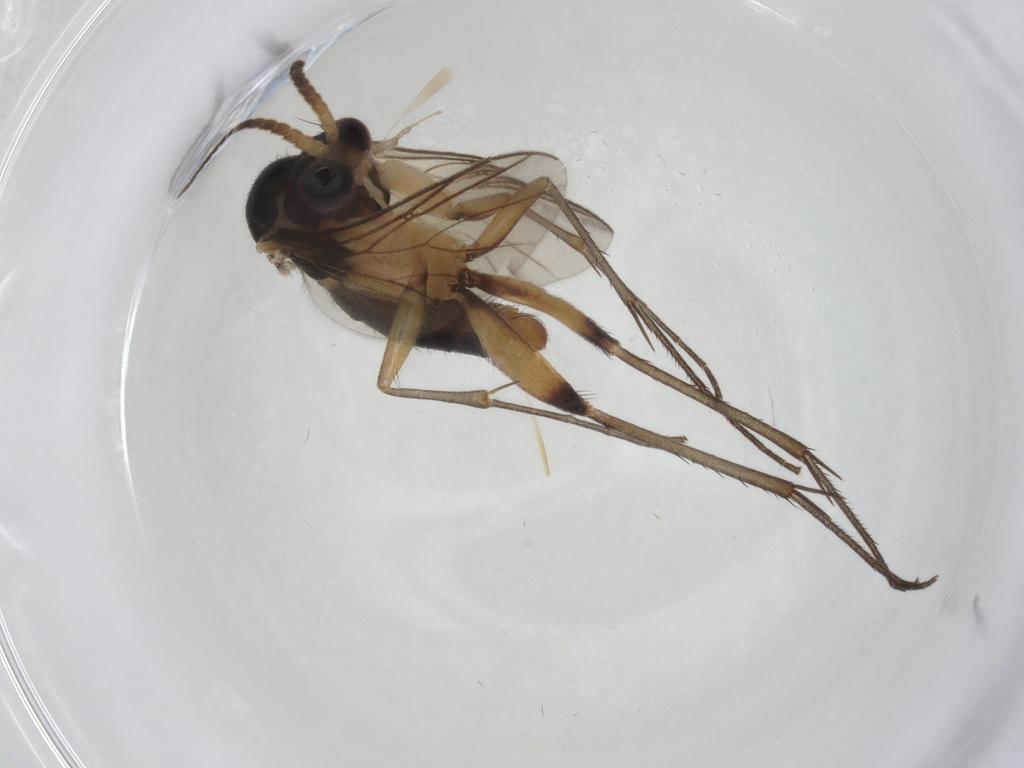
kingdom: Animalia
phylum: Arthropoda
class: Insecta
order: Diptera
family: Mycetophilidae
